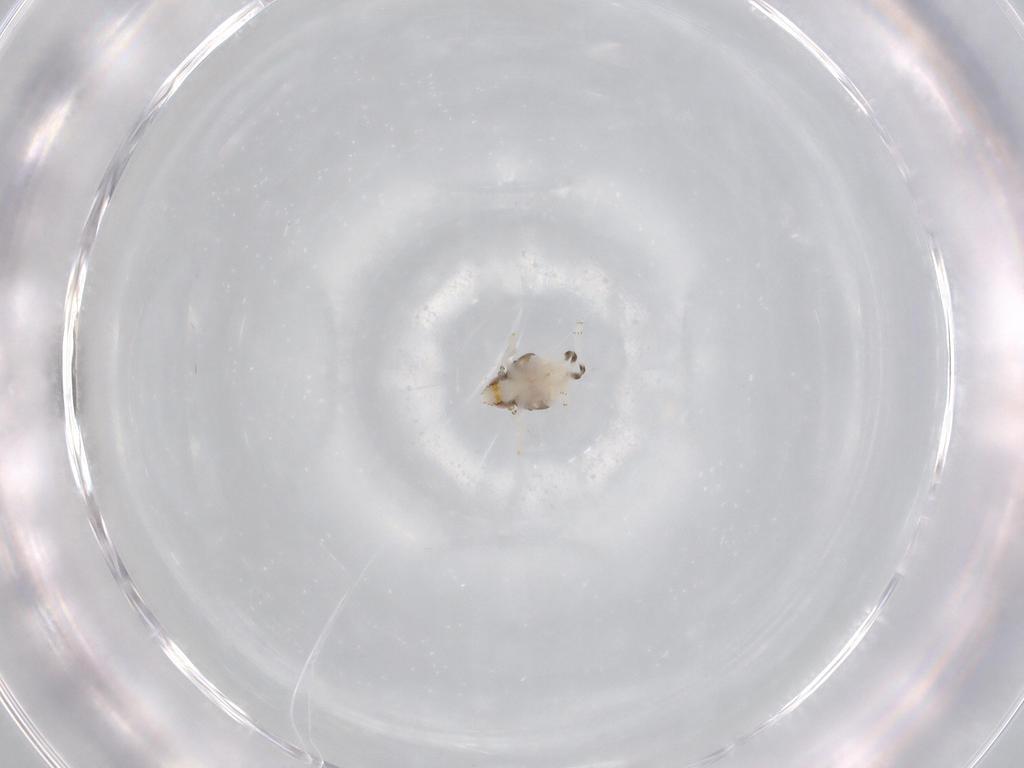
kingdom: Animalia
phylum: Arthropoda
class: Insecta
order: Hemiptera
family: Nogodinidae
